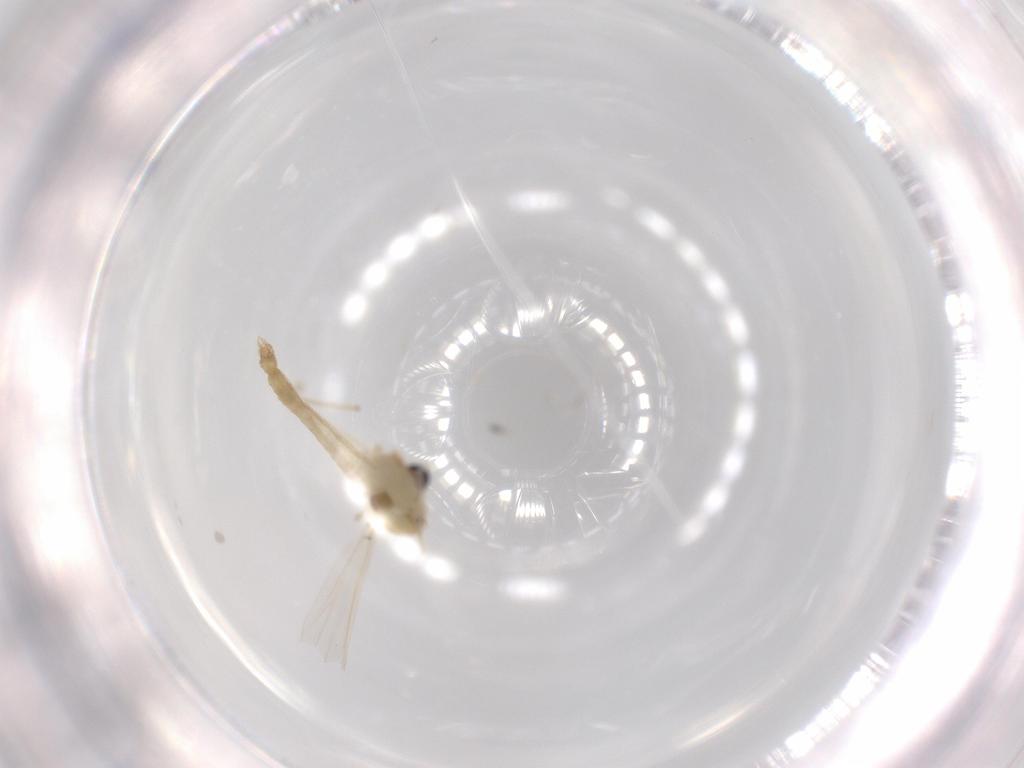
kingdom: Animalia
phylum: Arthropoda
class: Insecta
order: Diptera
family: Chironomidae
